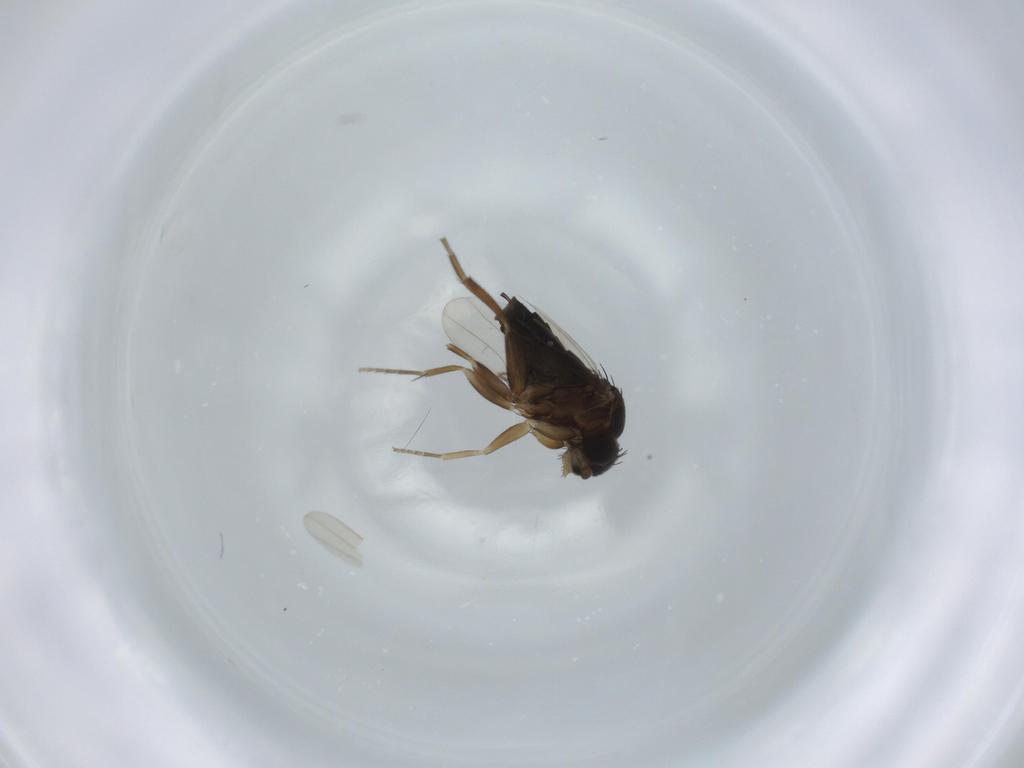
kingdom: Animalia
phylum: Arthropoda
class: Insecta
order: Diptera
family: Phoridae
